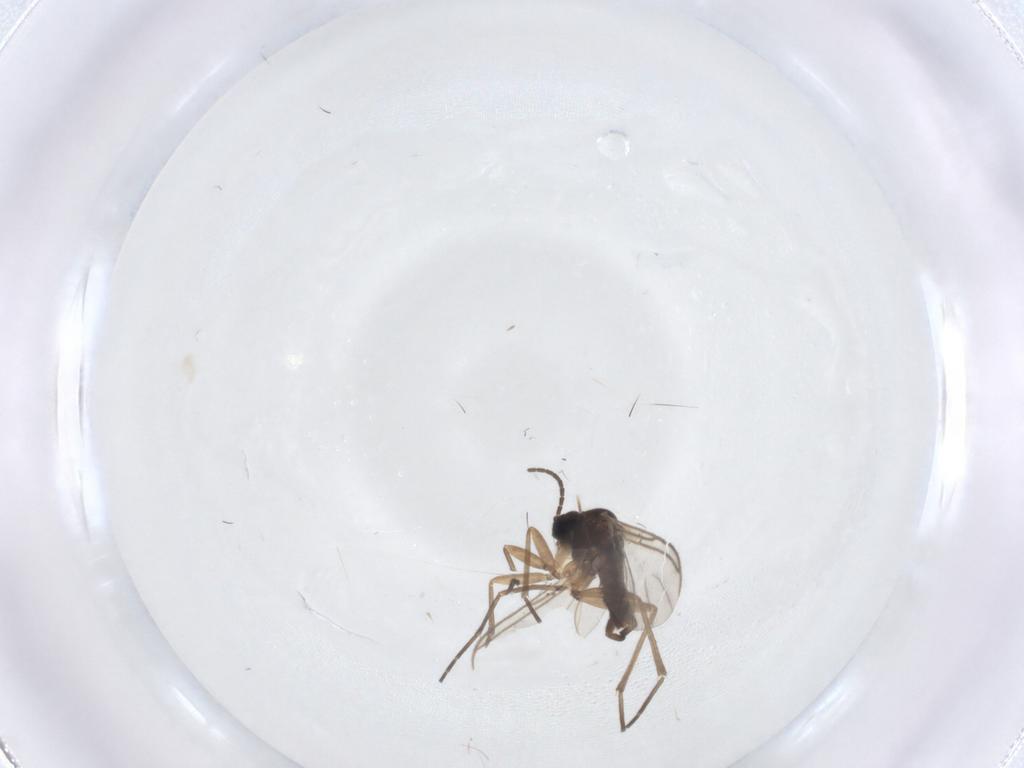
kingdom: Animalia
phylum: Arthropoda
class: Insecta
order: Diptera
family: Sciaridae
